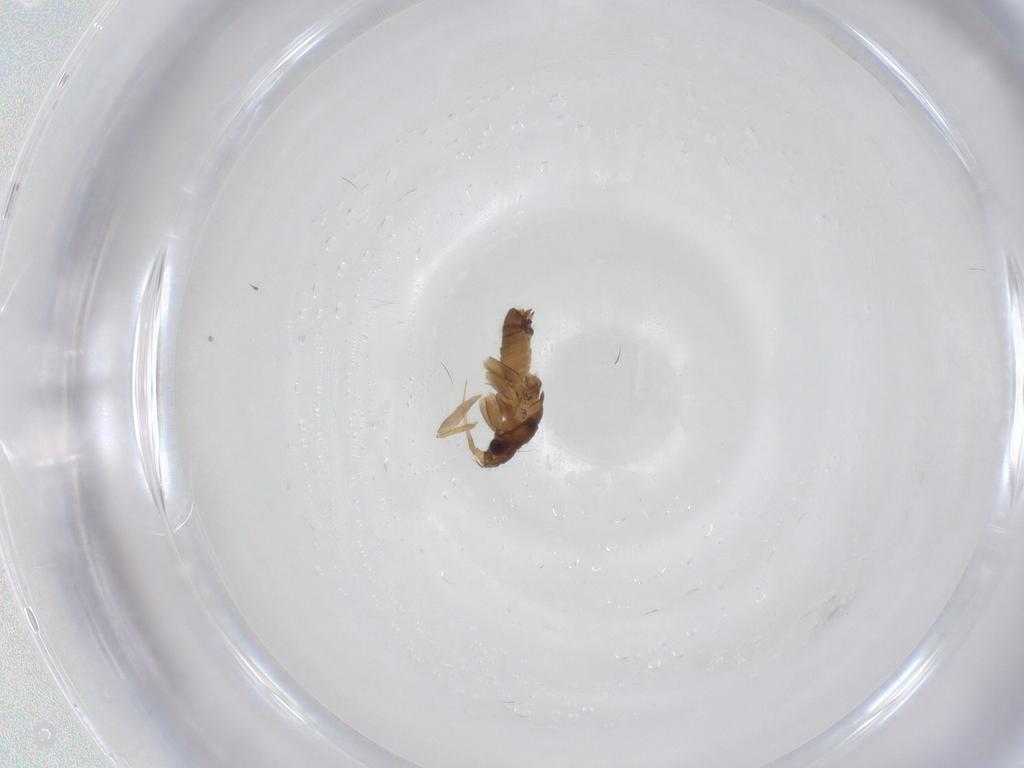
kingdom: Animalia
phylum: Arthropoda
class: Insecta
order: Hemiptera
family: Ceratocombidae
